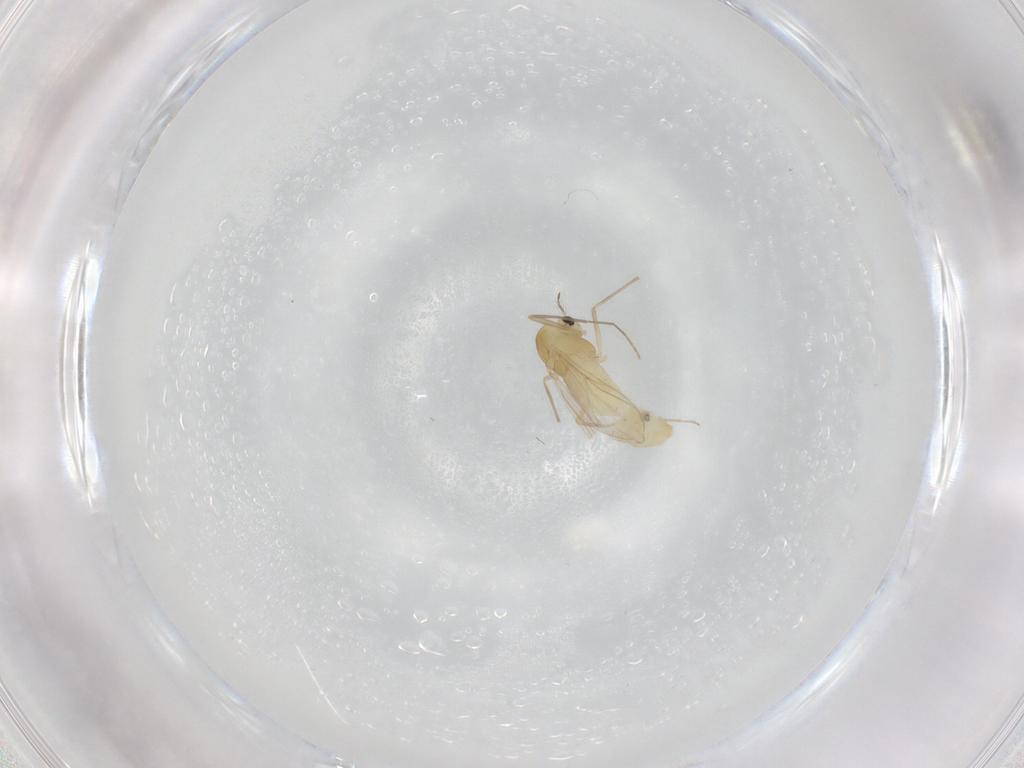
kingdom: Animalia
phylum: Arthropoda
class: Insecta
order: Diptera
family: Chironomidae
